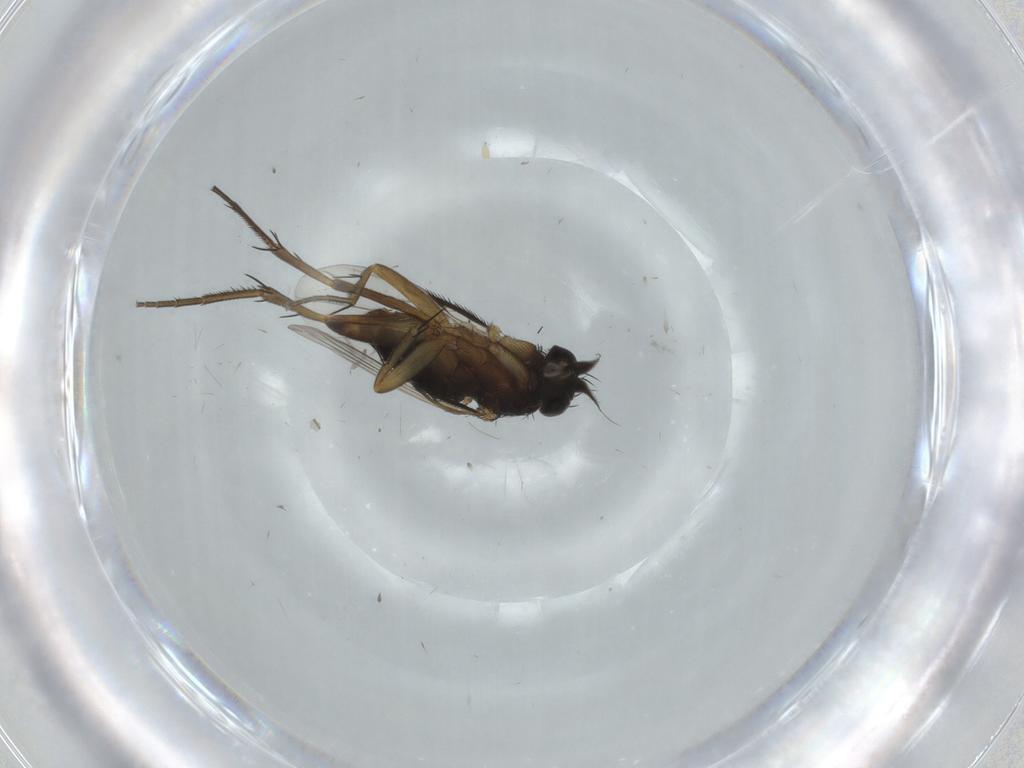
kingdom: Animalia
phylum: Arthropoda
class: Insecta
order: Diptera
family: Phoridae
